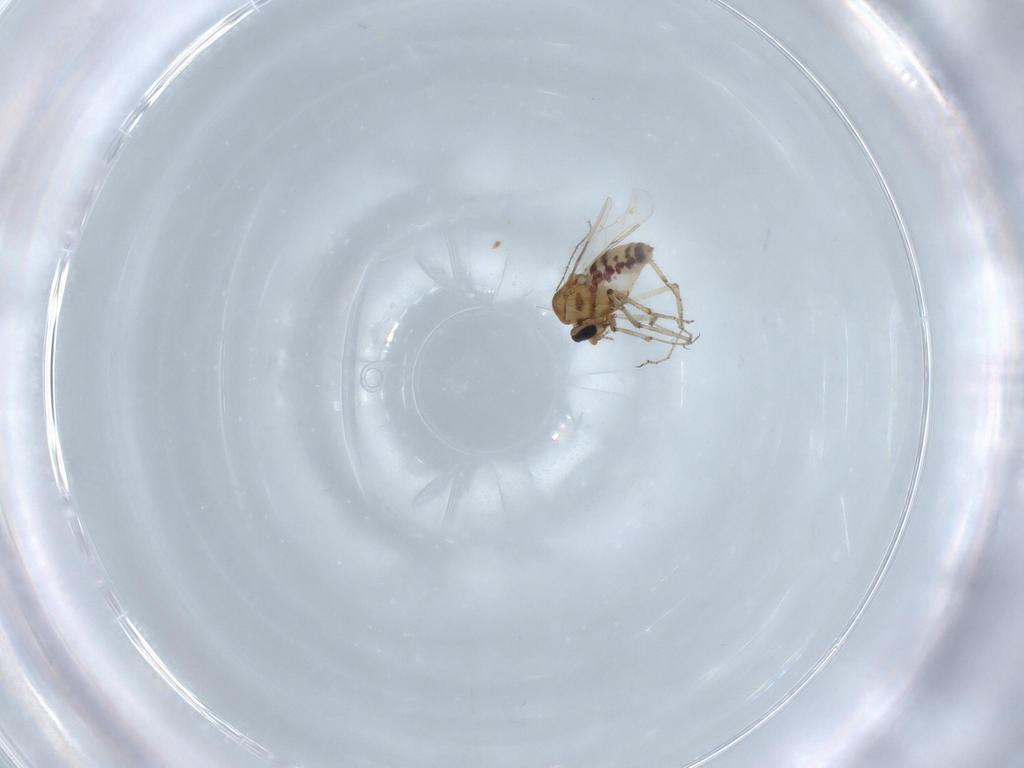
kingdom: Animalia
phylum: Arthropoda
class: Insecta
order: Diptera
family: Ceratopogonidae
